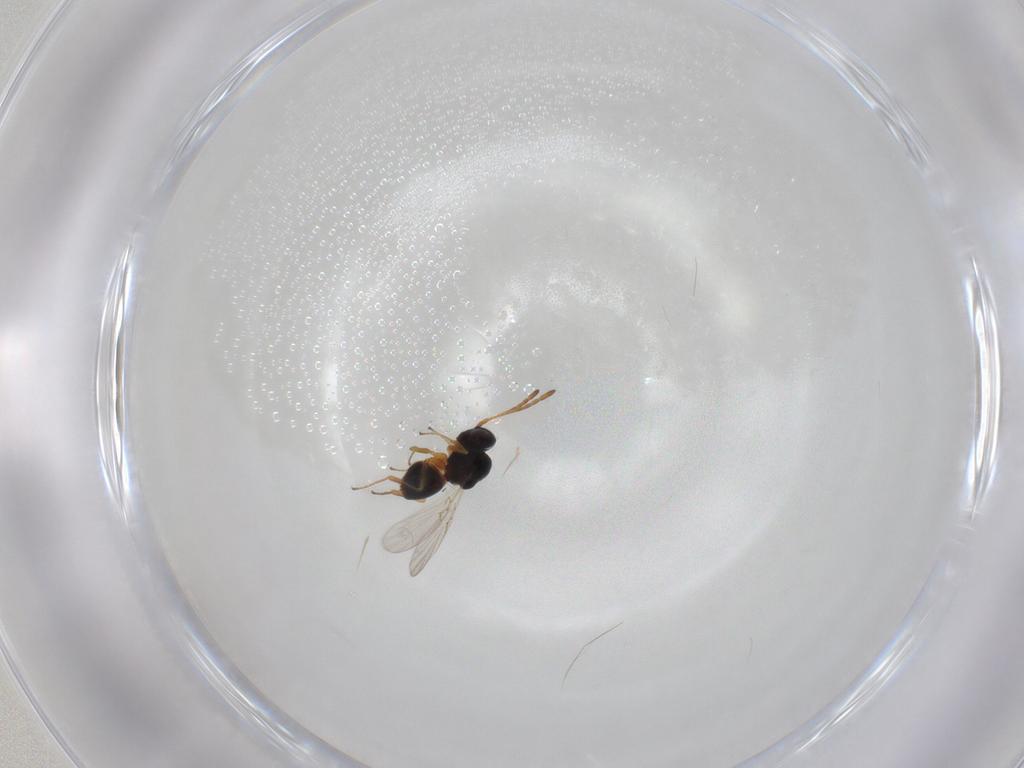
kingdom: Animalia
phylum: Arthropoda
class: Insecta
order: Hymenoptera
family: Figitidae
